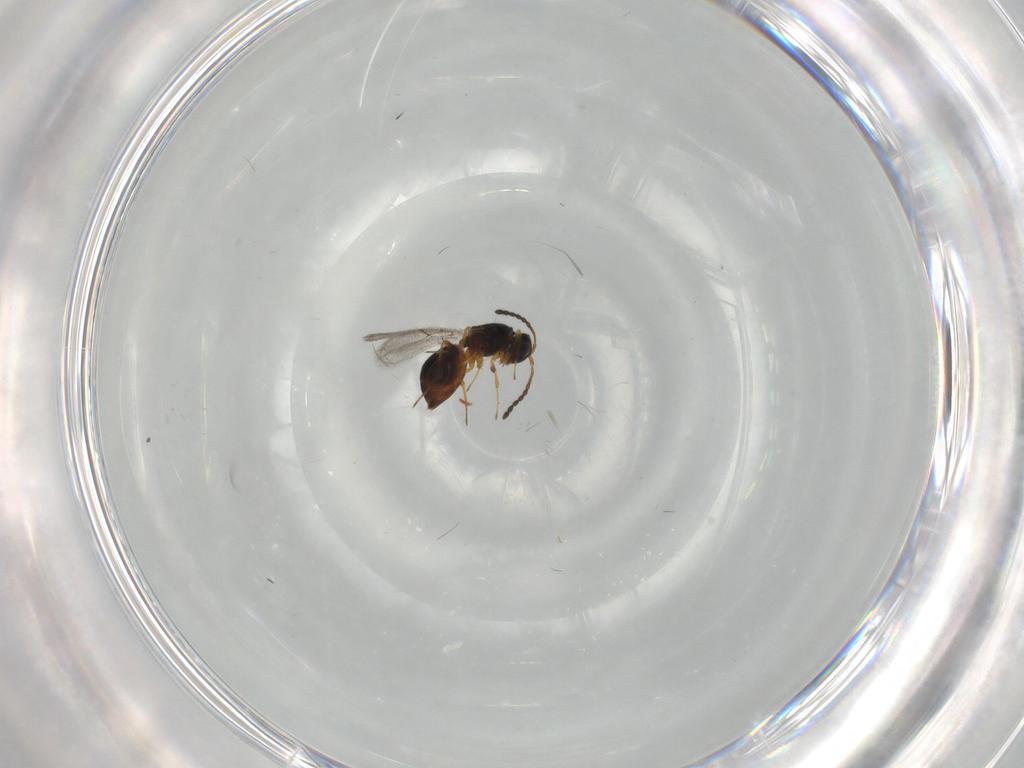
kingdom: Animalia
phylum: Arthropoda
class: Insecta
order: Hymenoptera
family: Figitidae
